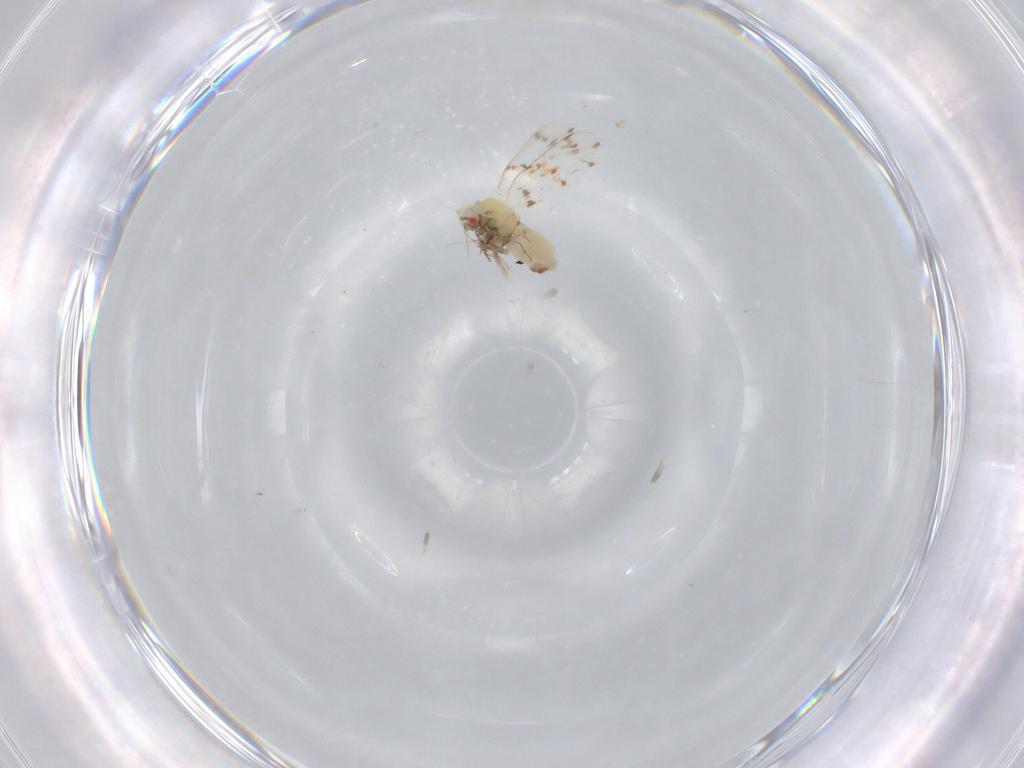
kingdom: Animalia
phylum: Arthropoda
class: Insecta
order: Hemiptera
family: Aleyrodidae
